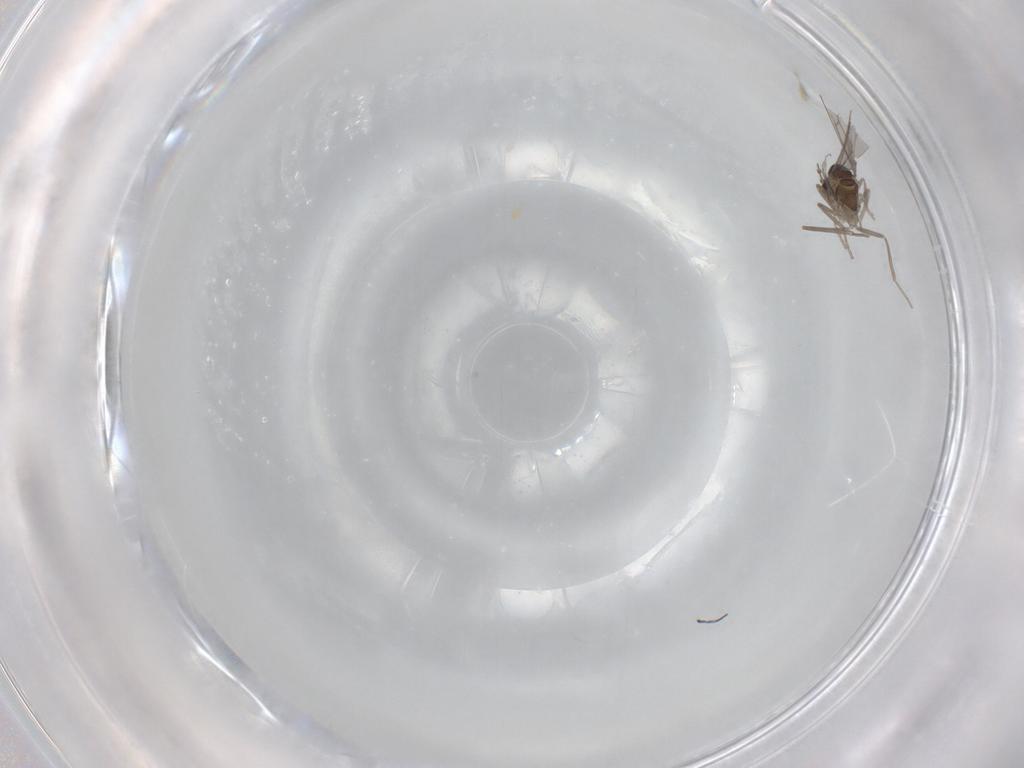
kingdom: Animalia
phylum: Arthropoda
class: Insecta
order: Diptera
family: Cecidomyiidae
